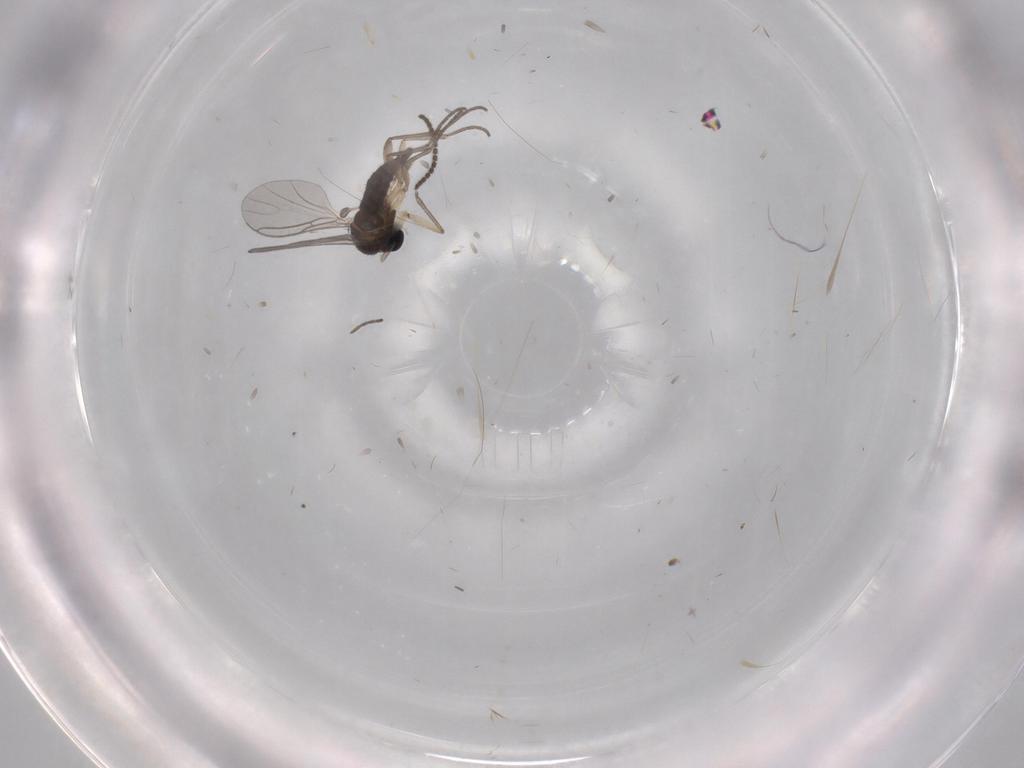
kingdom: Animalia
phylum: Arthropoda
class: Insecta
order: Diptera
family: Sciaridae
